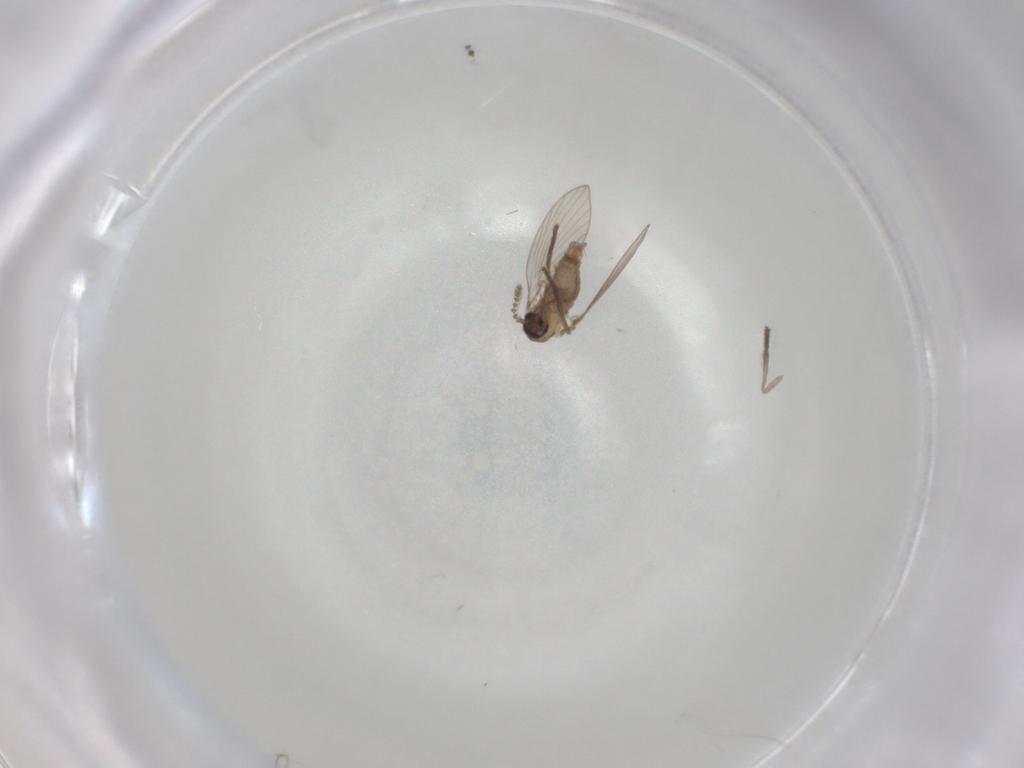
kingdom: Animalia
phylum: Arthropoda
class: Insecta
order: Diptera
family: Psychodidae
